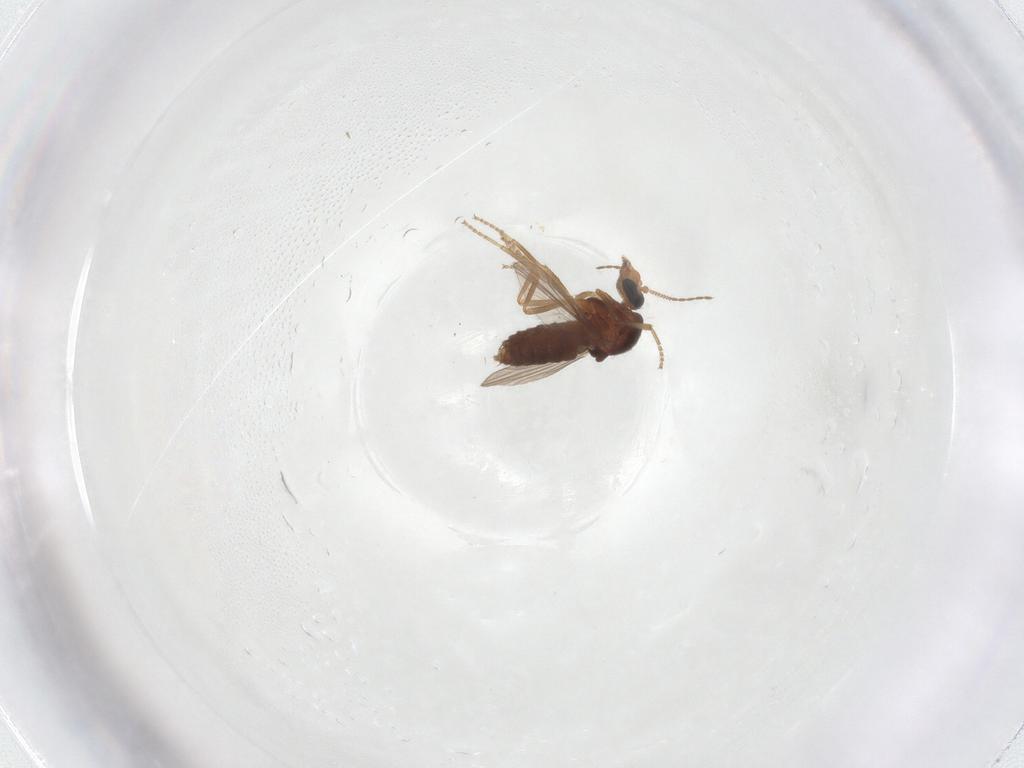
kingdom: Animalia
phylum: Arthropoda
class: Insecta
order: Diptera
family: Ceratopogonidae
